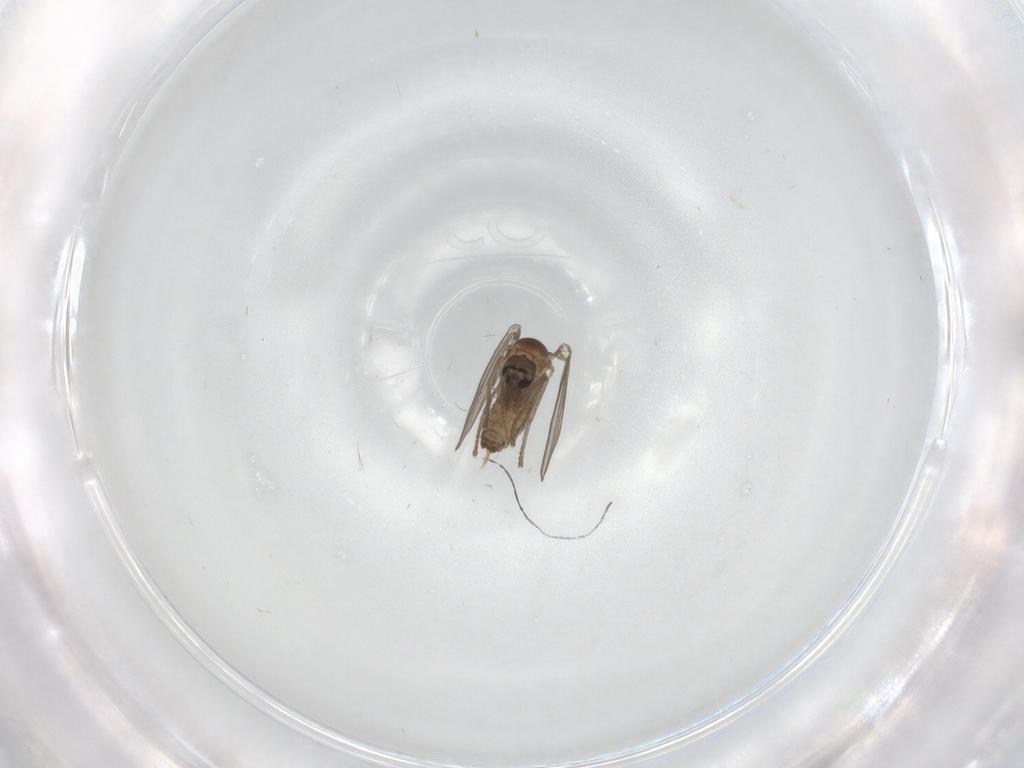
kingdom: Animalia
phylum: Arthropoda
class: Insecta
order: Diptera
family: Psychodidae
